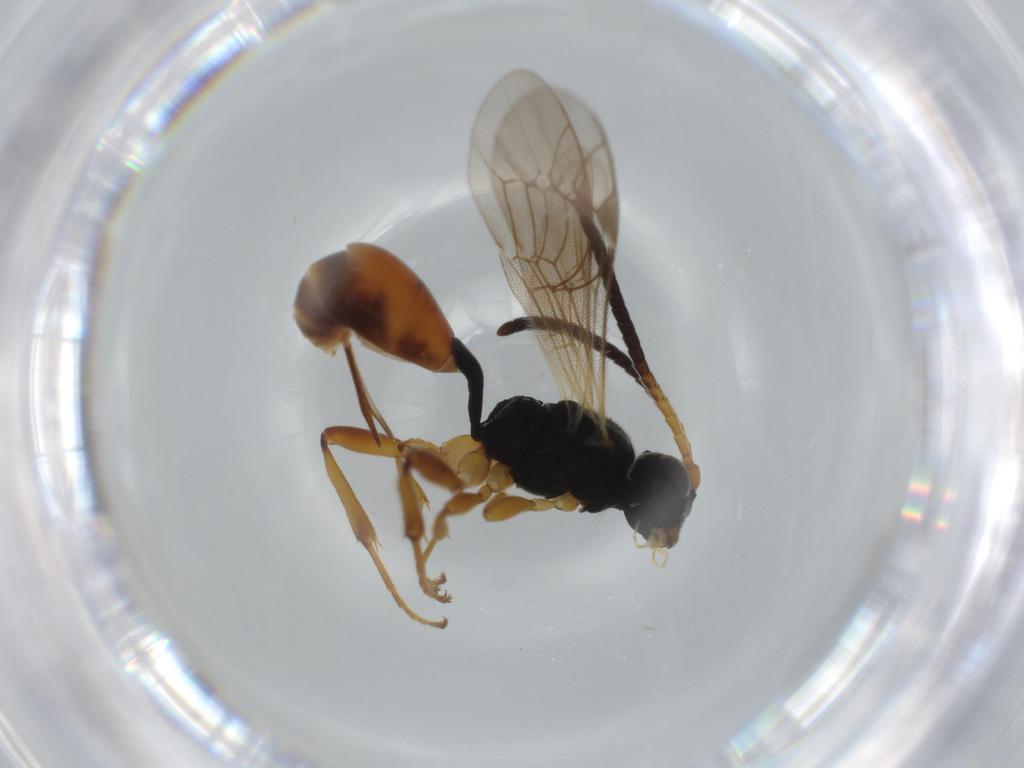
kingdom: Animalia
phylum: Arthropoda
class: Insecta
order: Hymenoptera
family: Ichneumonidae
